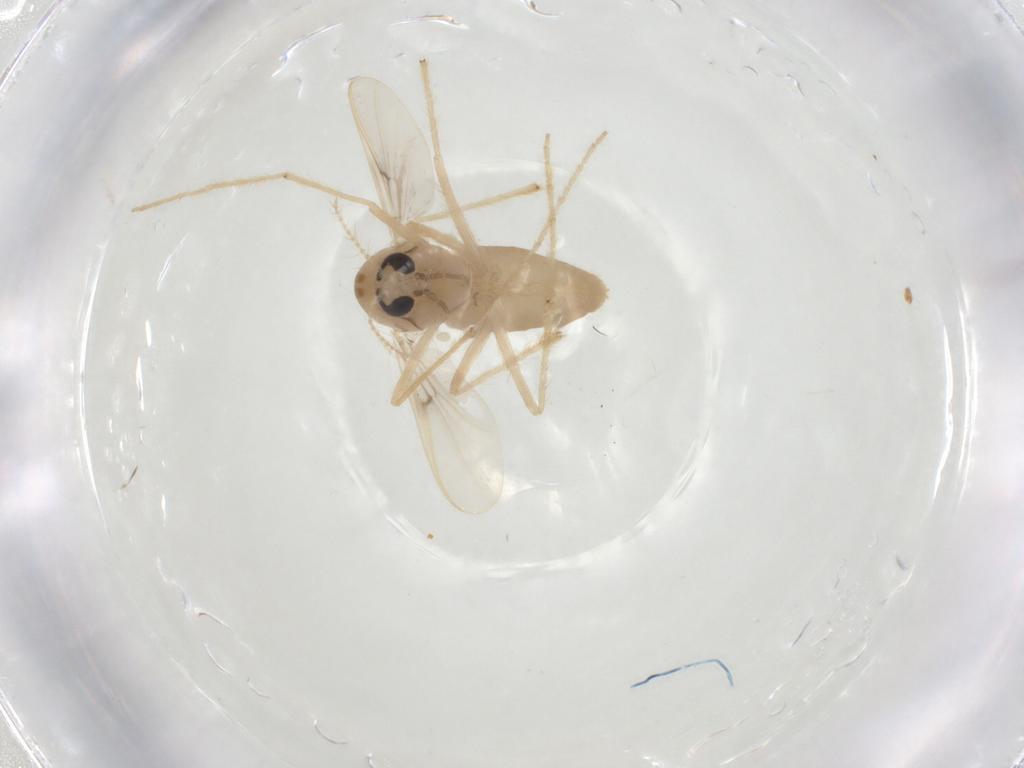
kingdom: Animalia
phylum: Arthropoda
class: Insecta
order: Diptera
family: Chironomidae
